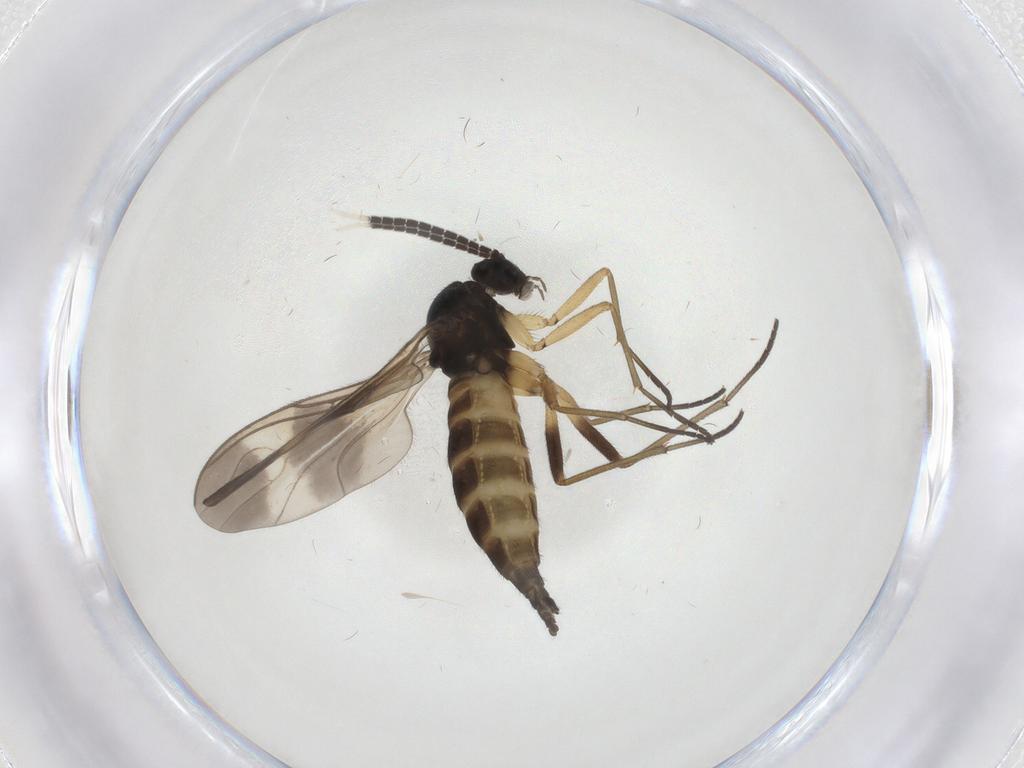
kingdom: Animalia
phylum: Arthropoda
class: Insecta
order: Diptera
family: Sciaridae
